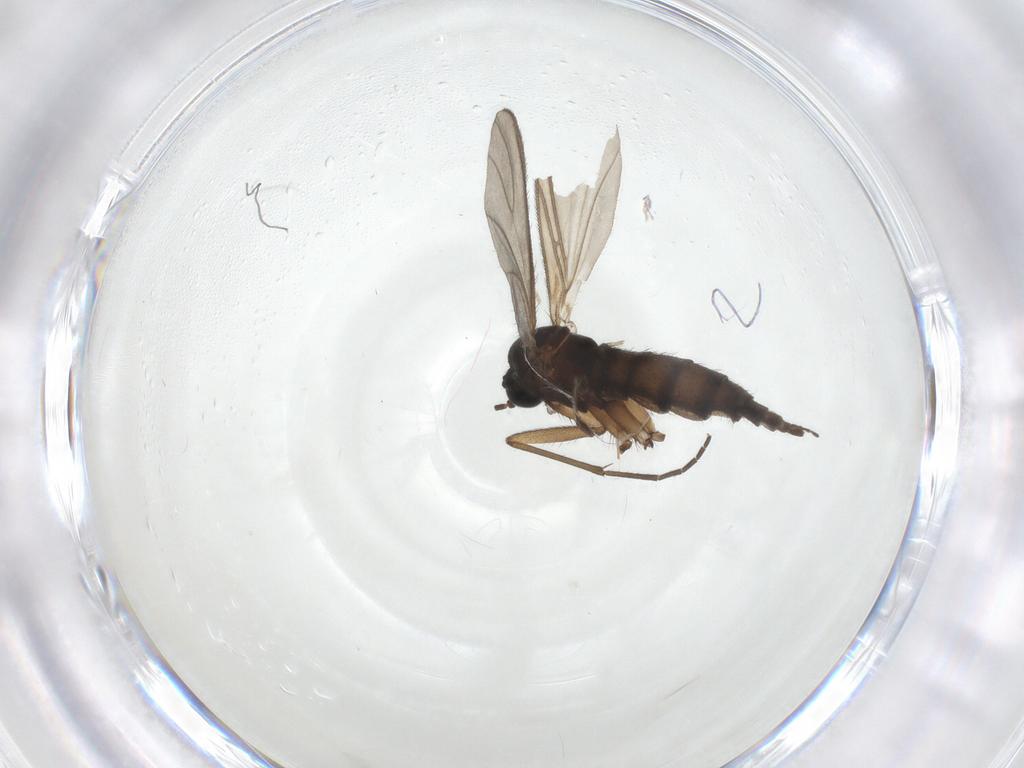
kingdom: Animalia
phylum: Arthropoda
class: Insecta
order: Diptera
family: Sciaridae
